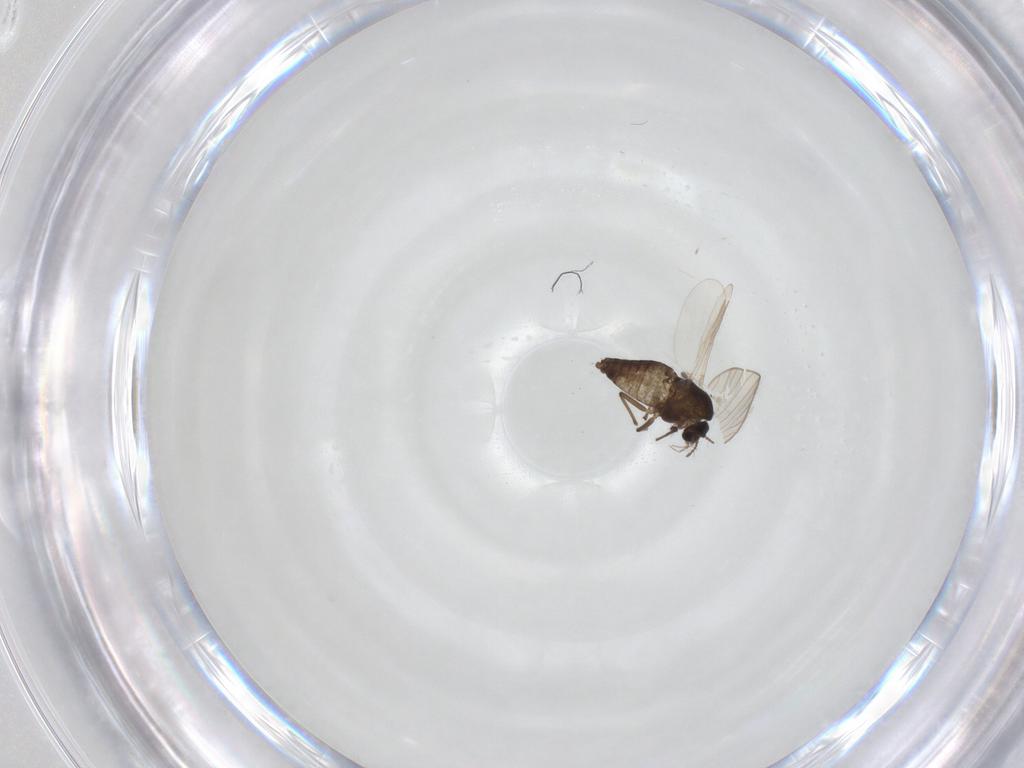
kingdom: Animalia
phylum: Arthropoda
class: Insecta
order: Diptera
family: Chironomidae
